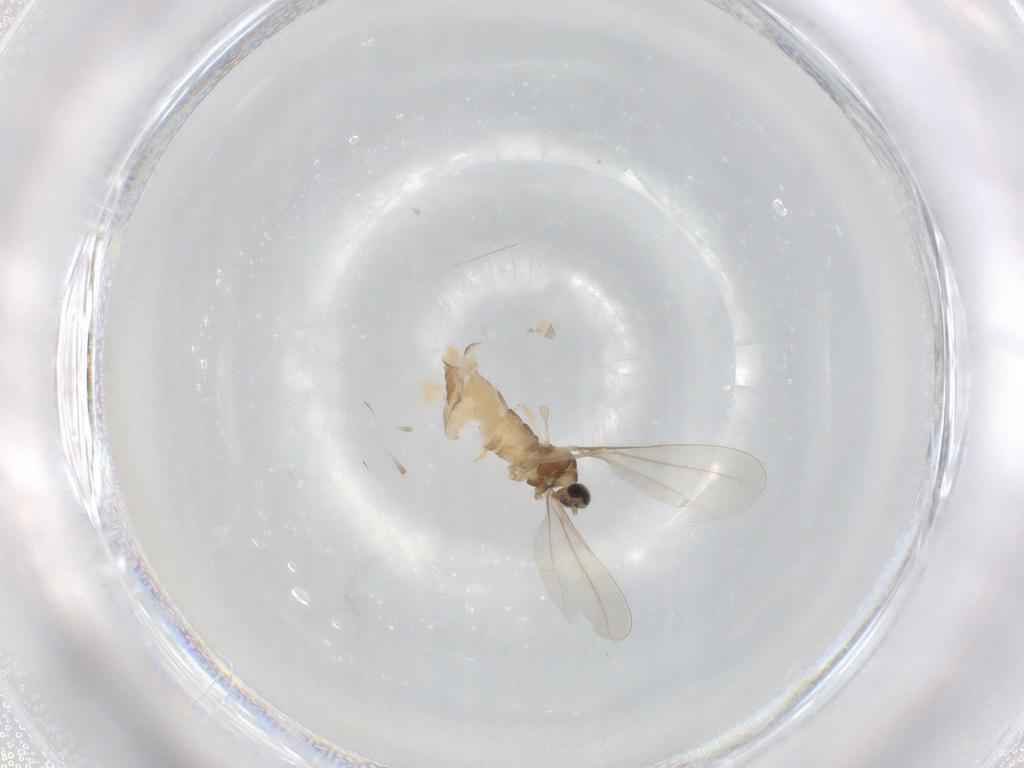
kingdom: Animalia
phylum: Arthropoda
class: Insecta
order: Diptera
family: Cecidomyiidae
